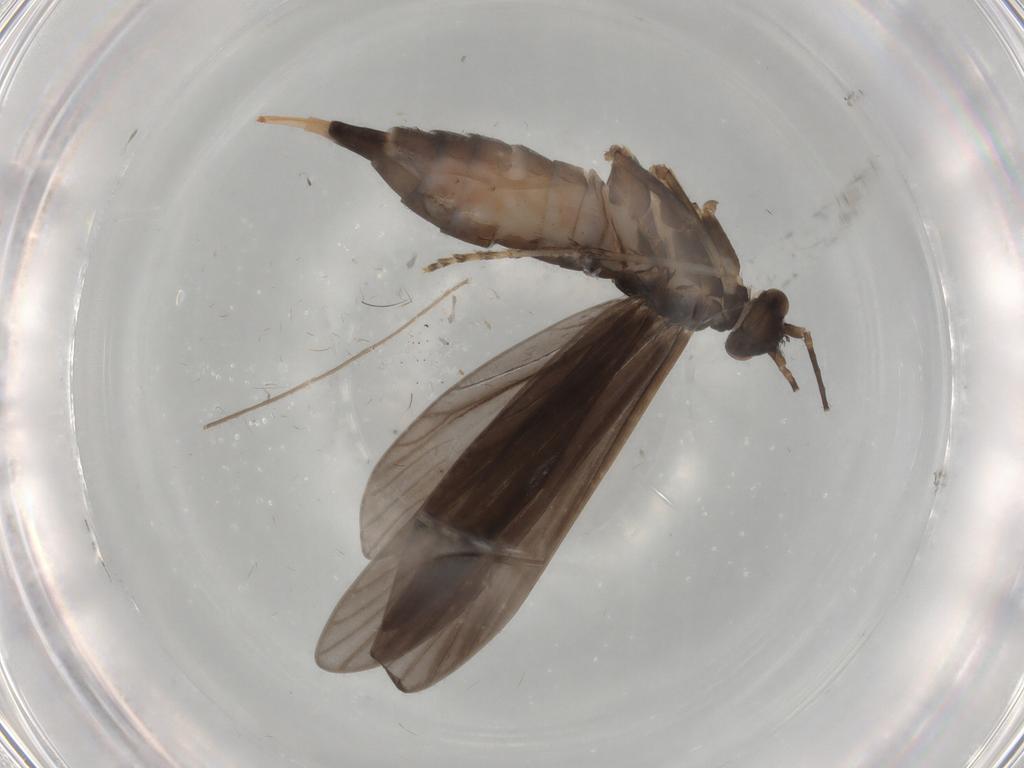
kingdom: Animalia
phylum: Arthropoda
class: Insecta
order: Trichoptera
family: Xiphocentronidae
